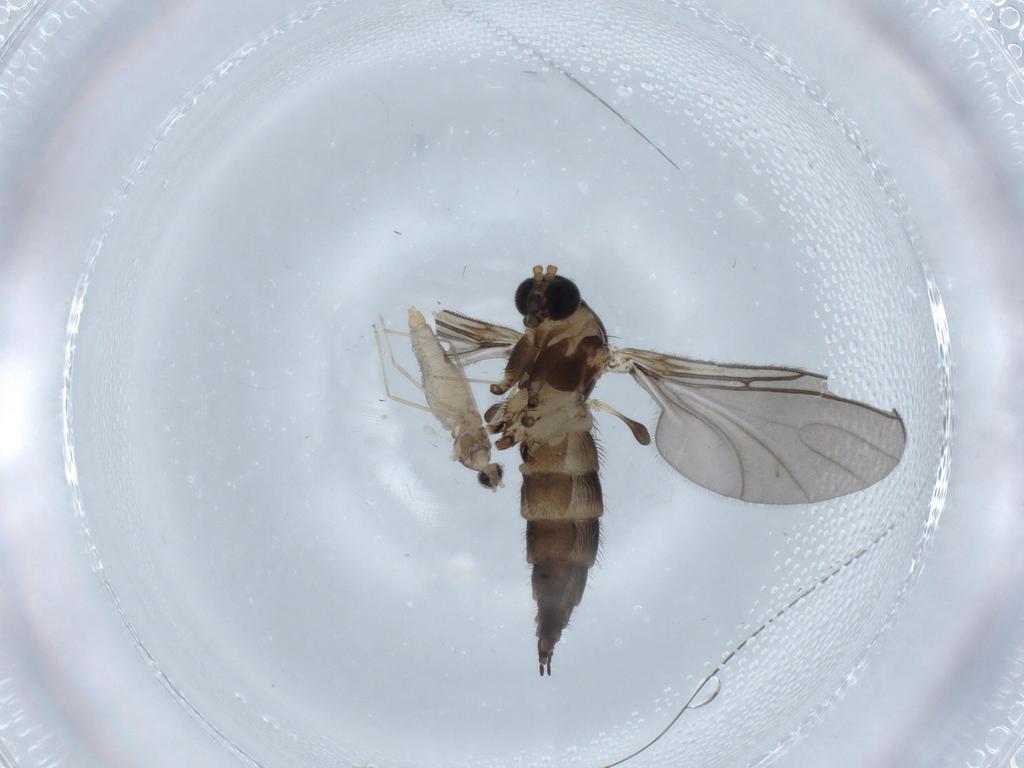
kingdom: Animalia
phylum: Arthropoda
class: Insecta
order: Diptera
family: Sciaridae
